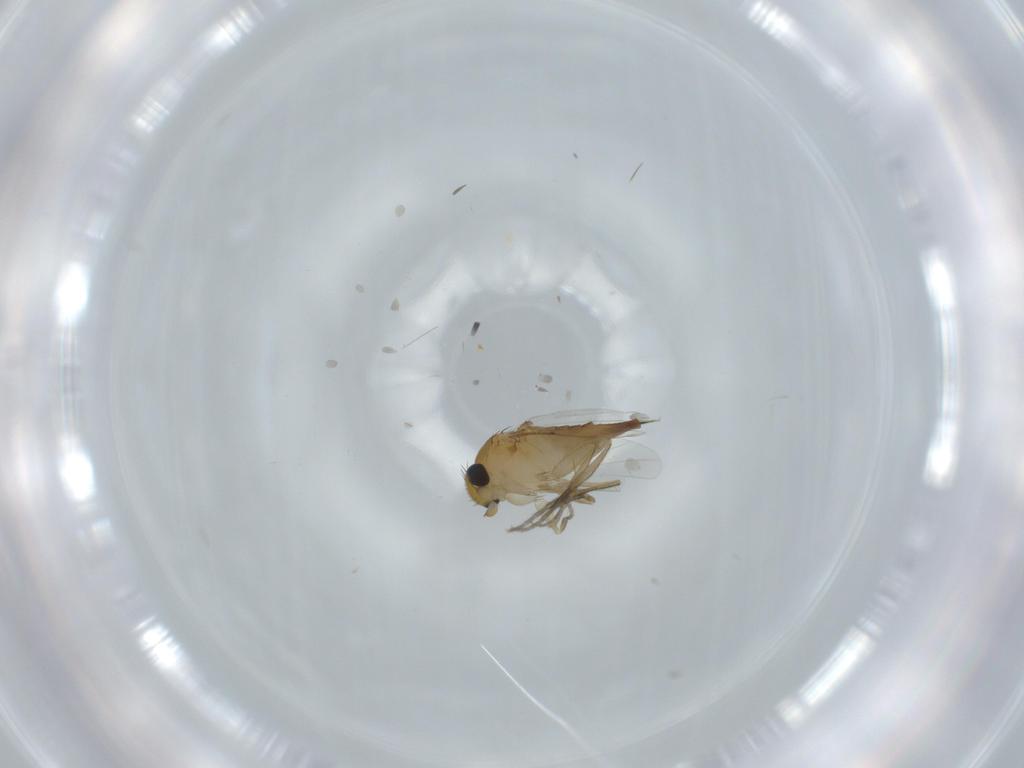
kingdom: Animalia
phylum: Arthropoda
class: Insecta
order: Diptera
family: Phoridae
